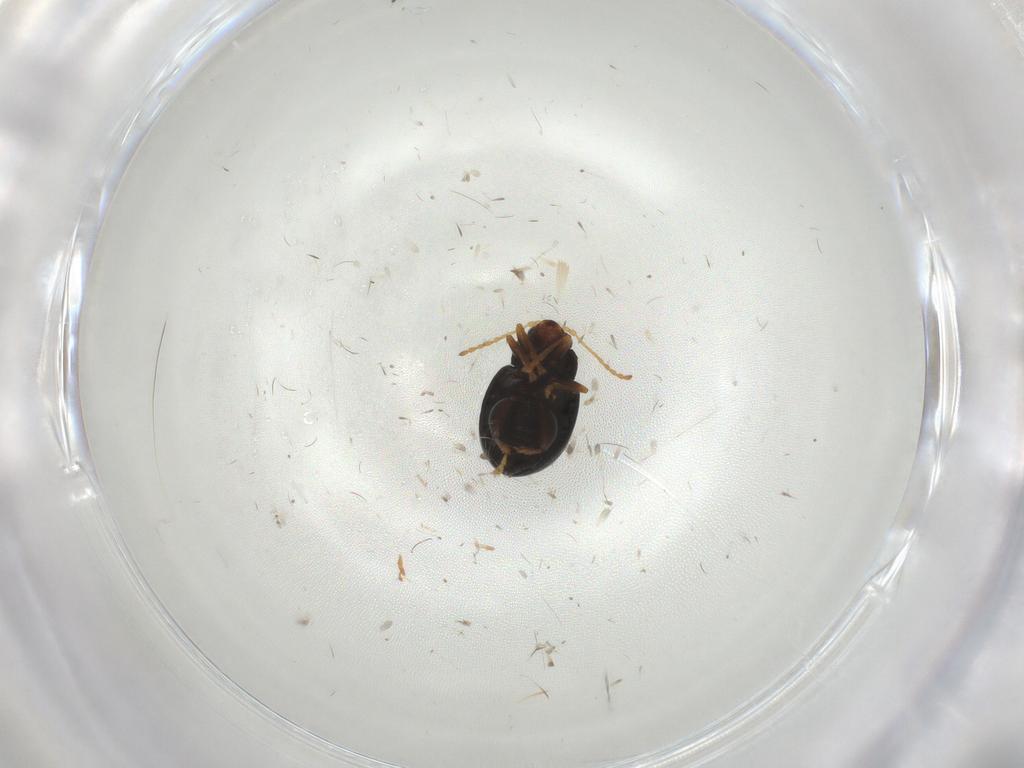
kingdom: Animalia
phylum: Arthropoda
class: Insecta
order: Coleoptera
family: Chrysomelidae
